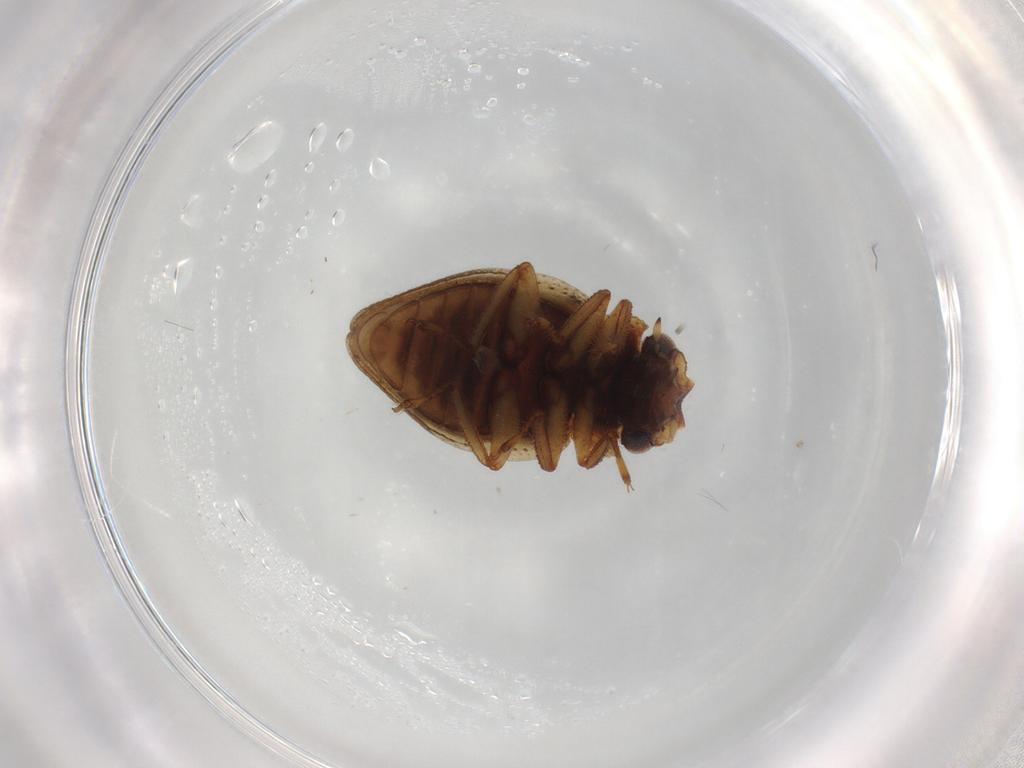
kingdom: Animalia
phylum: Arthropoda
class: Insecta
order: Coleoptera
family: Spercheidae
